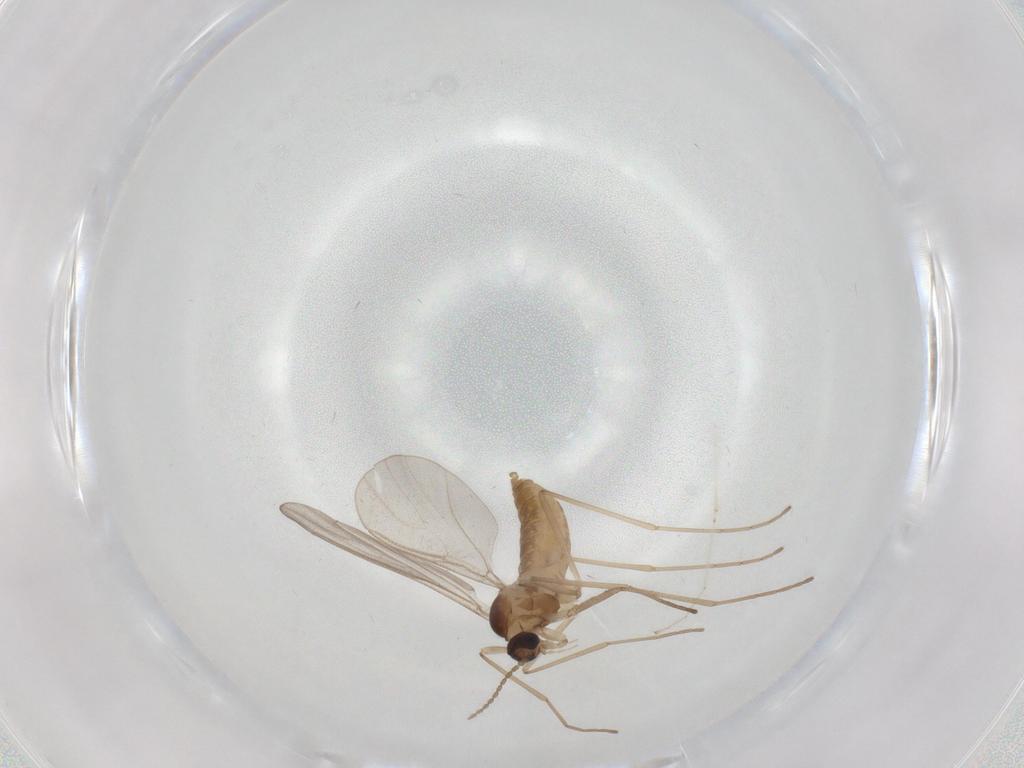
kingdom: Animalia
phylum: Arthropoda
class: Insecta
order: Diptera
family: Cecidomyiidae
